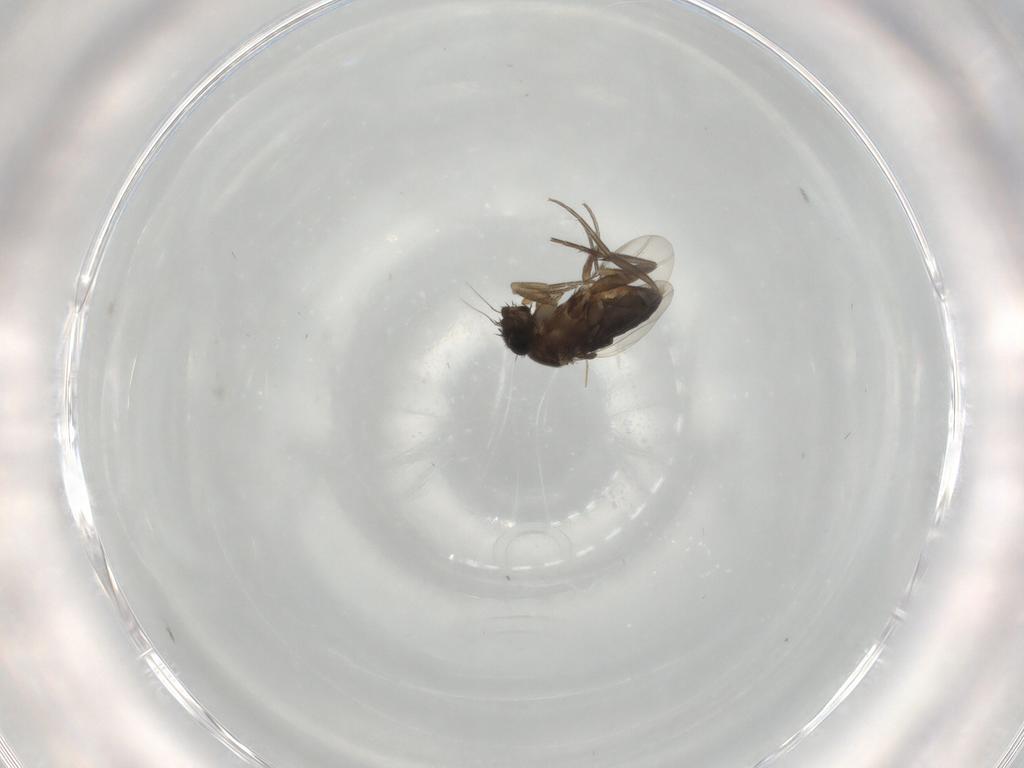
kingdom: Animalia
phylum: Arthropoda
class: Insecta
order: Diptera
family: Phoridae
